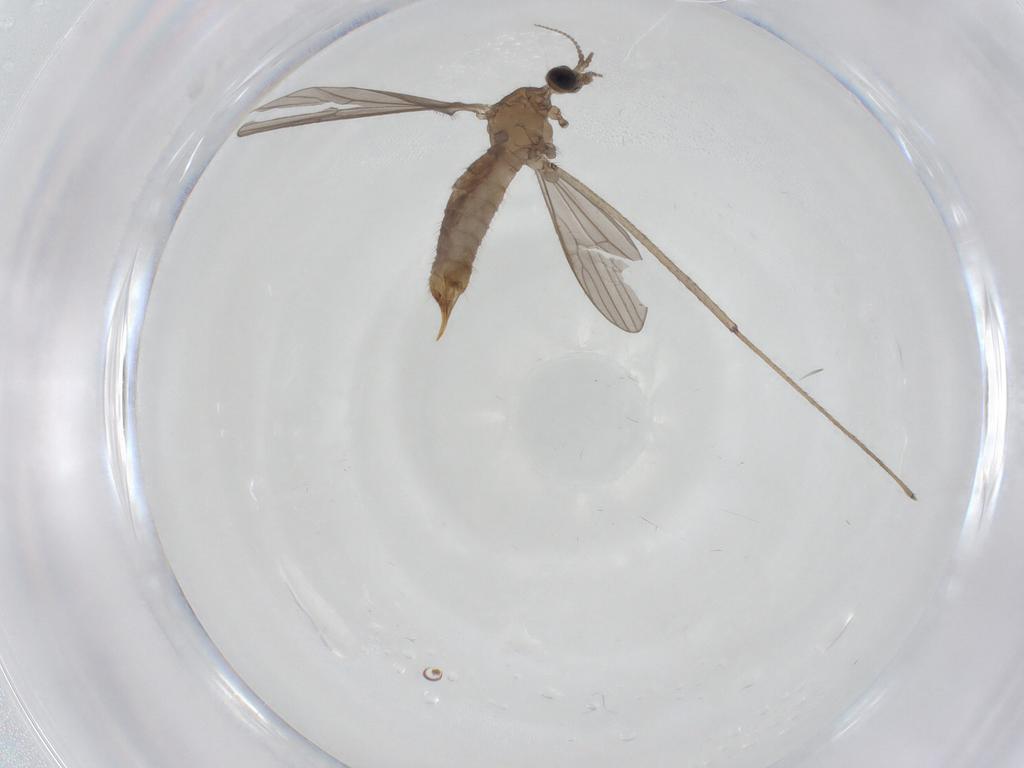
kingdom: Animalia
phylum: Arthropoda
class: Insecta
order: Diptera
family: Limoniidae
